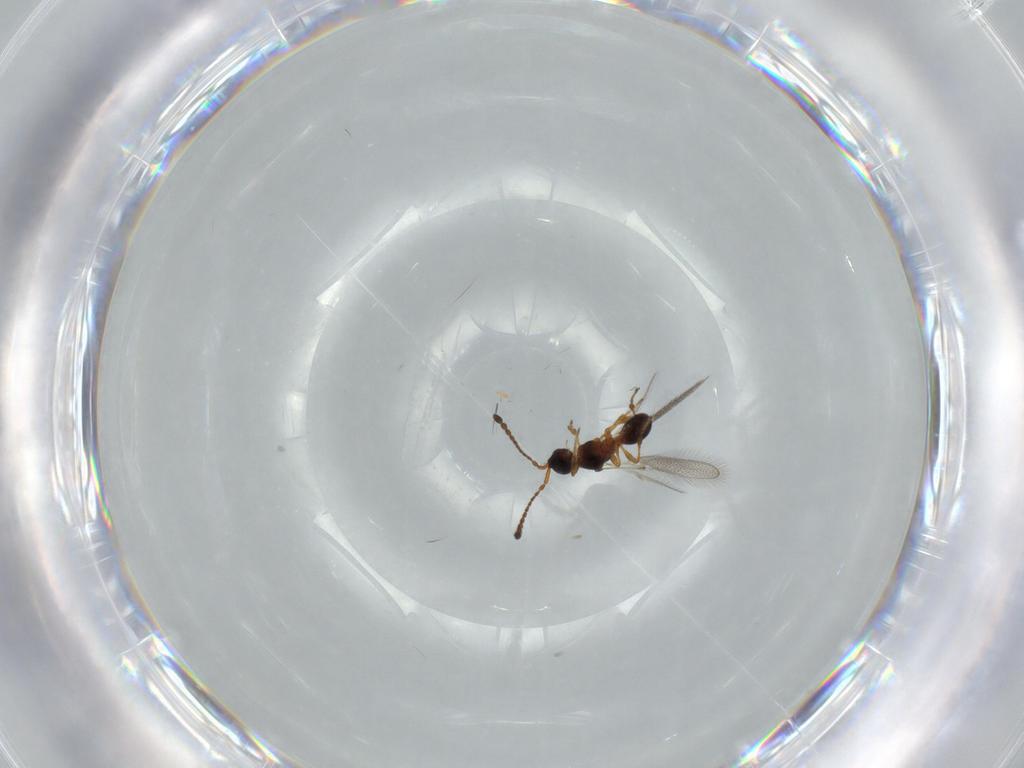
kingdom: Animalia
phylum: Arthropoda
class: Insecta
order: Hymenoptera
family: Diapriidae
